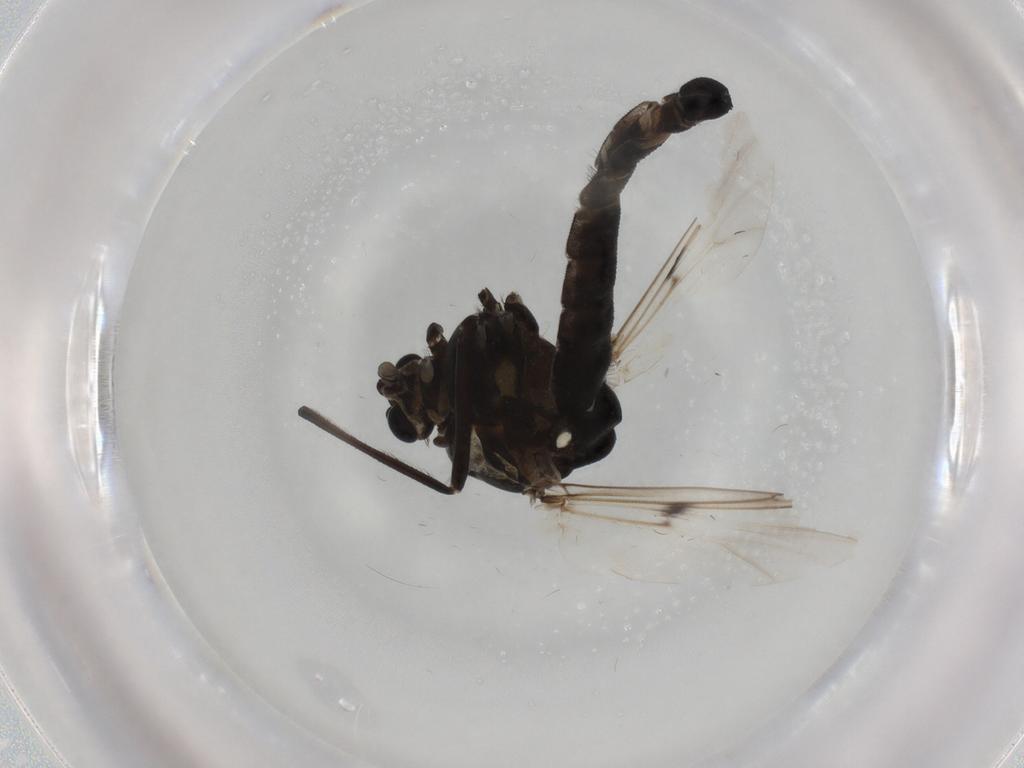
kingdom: Animalia
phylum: Arthropoda
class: Insecta
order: Diptera
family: Chironomidae
